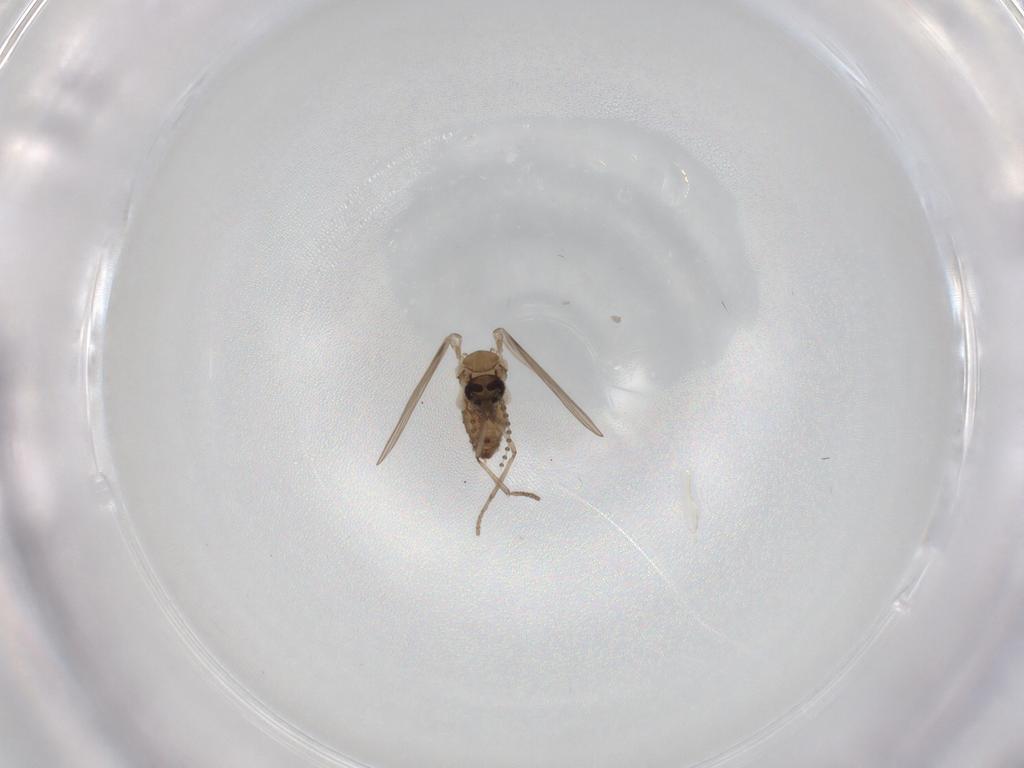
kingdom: Animalia
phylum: Arthropoda
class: Insecta
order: Diptera
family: Psychodidae
